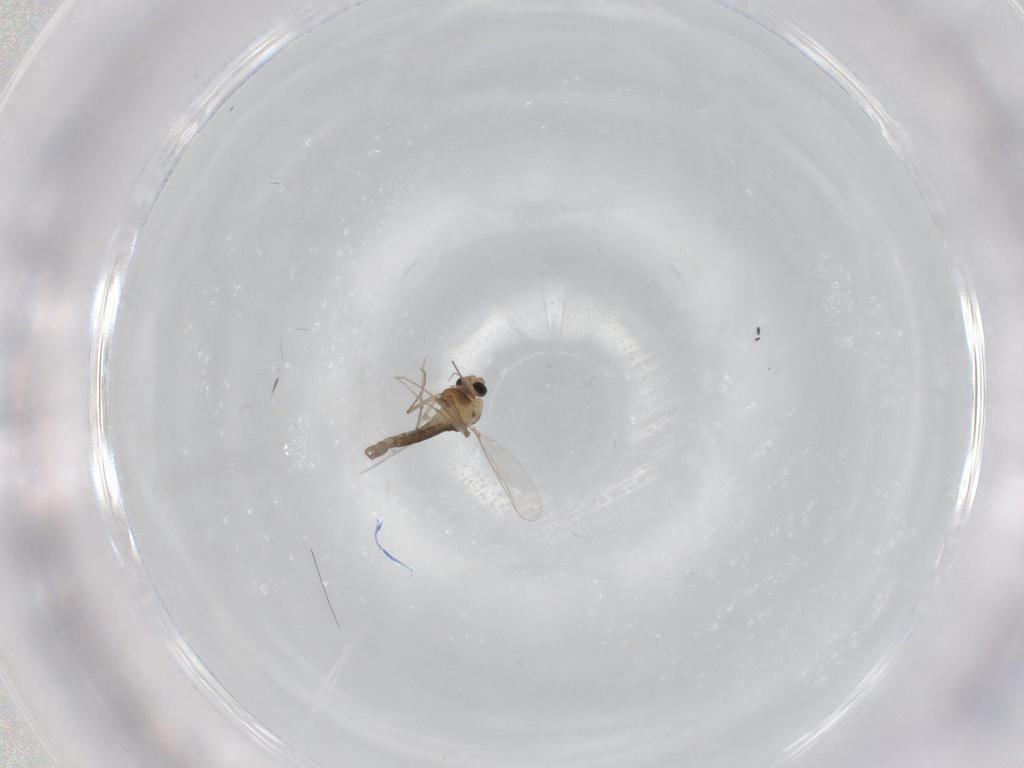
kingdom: Animalia
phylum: Arthropoda
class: Insecta
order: Diptera
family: Chironomidae
